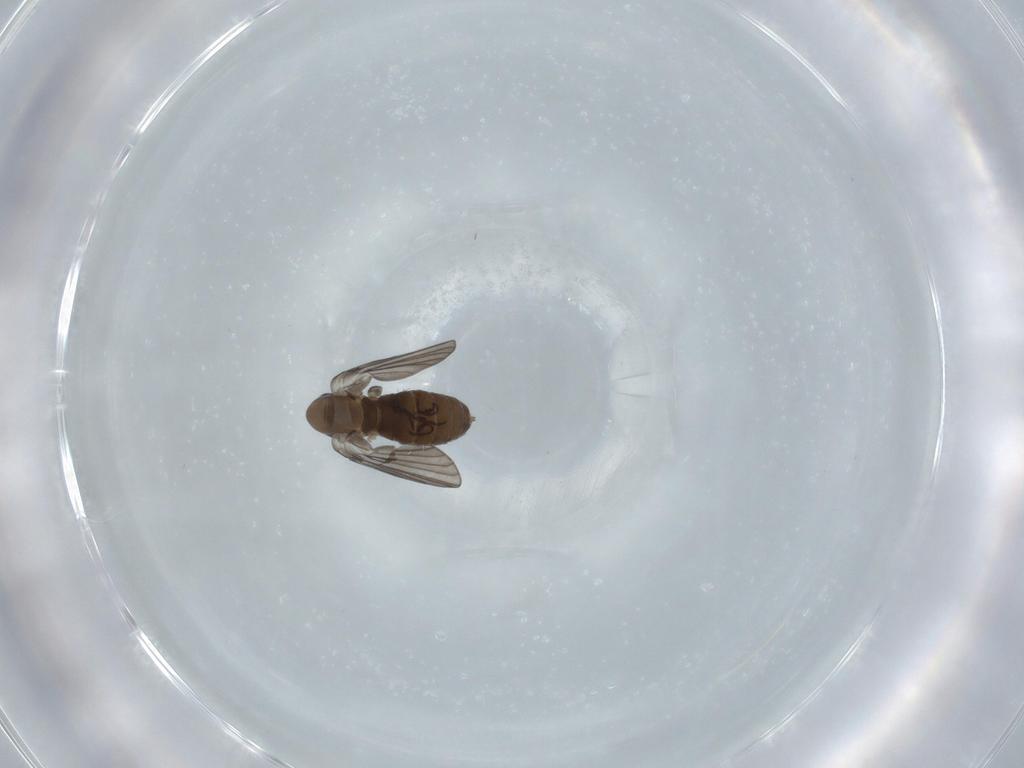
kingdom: Animalia
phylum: Arthropoda
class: Insecta
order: Diptera
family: Psychodidae
